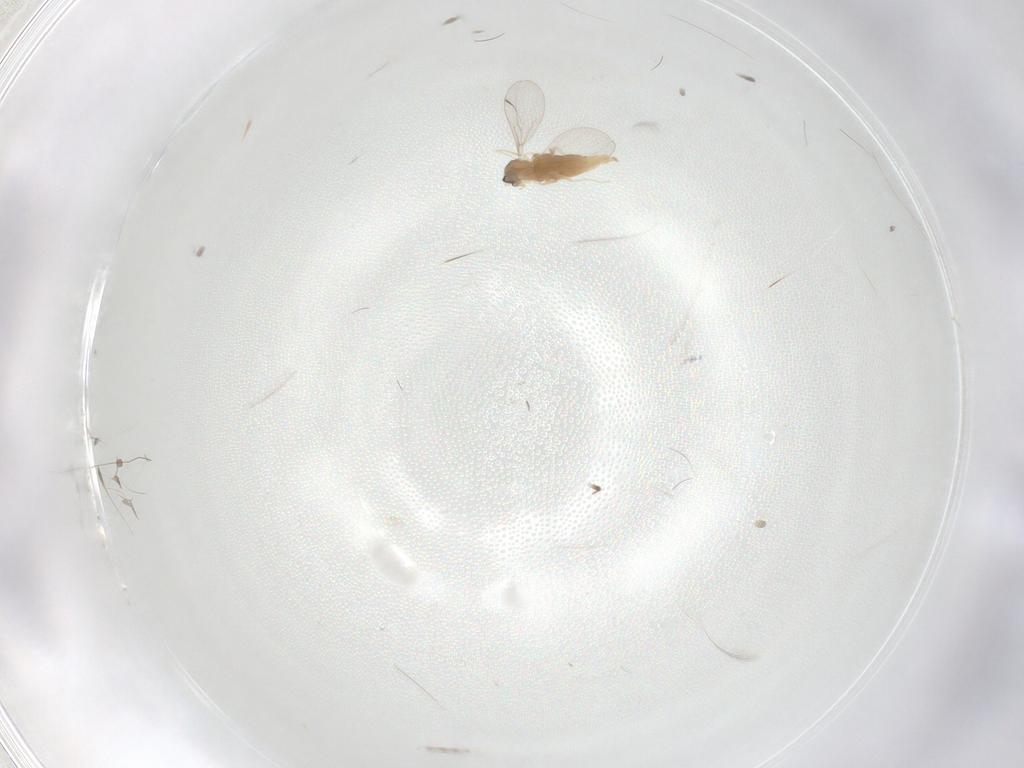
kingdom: Animalia
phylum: Arthropoda
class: Insecta
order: Diptera
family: Cecidomyiidae
